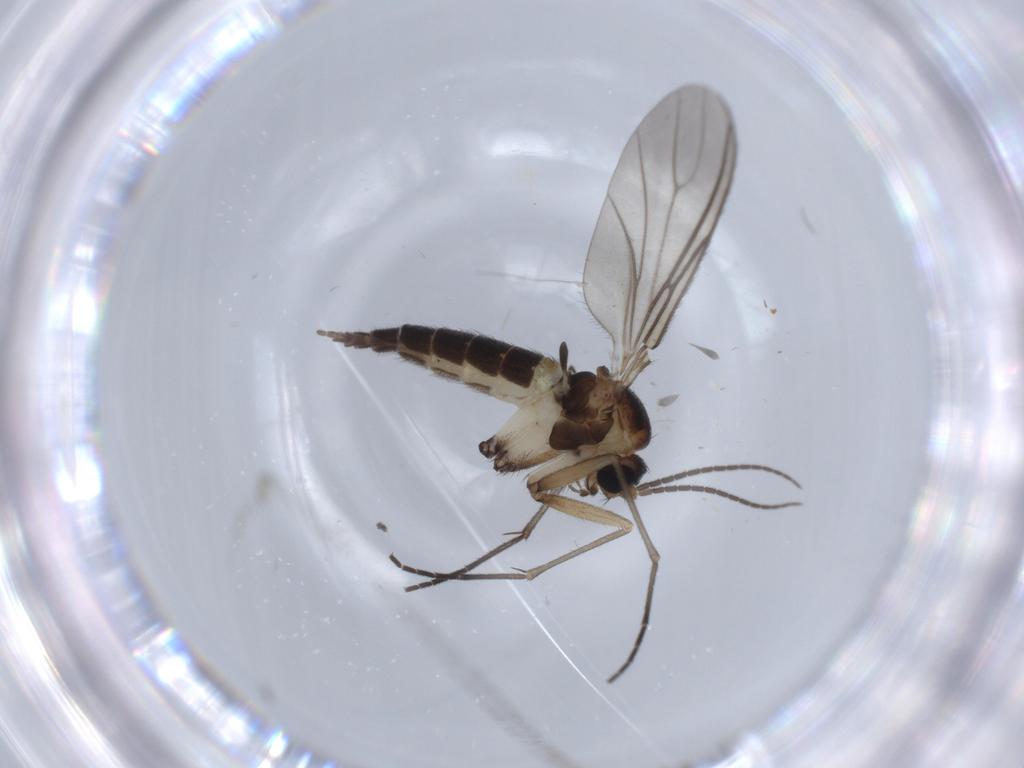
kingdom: Animalia
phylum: Arthropoda
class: Insecta
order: Diptera
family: Sciaridae
